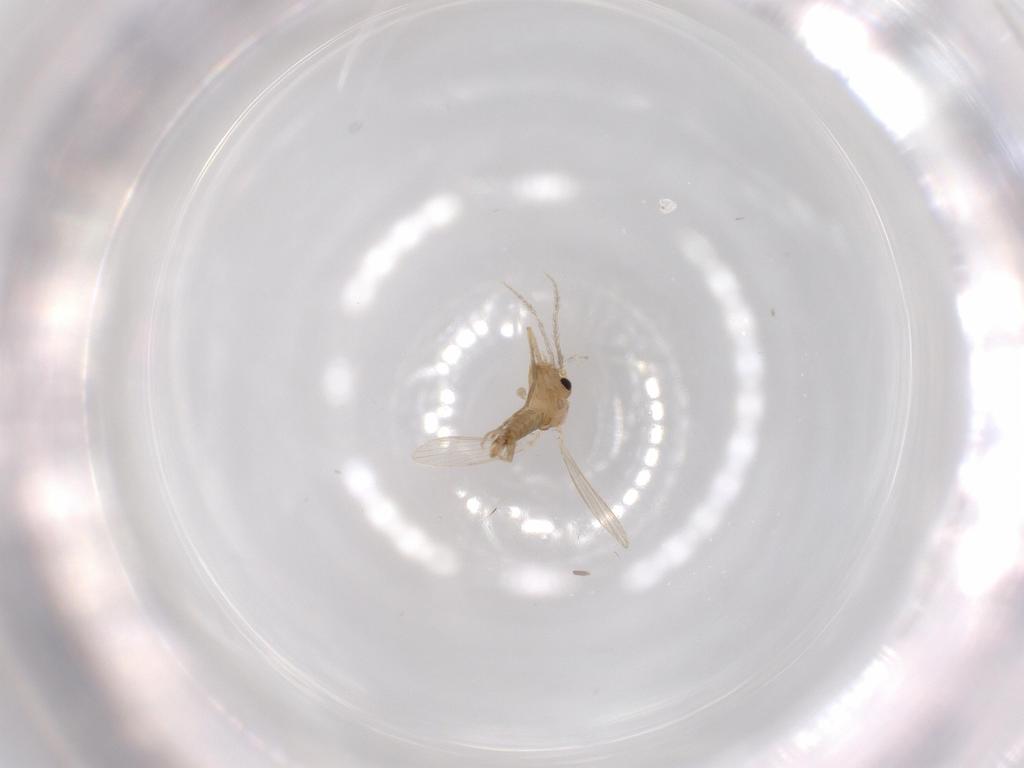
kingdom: Animalia
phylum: Arthropoda
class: Insecta
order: Diptera
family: Psychodidae
